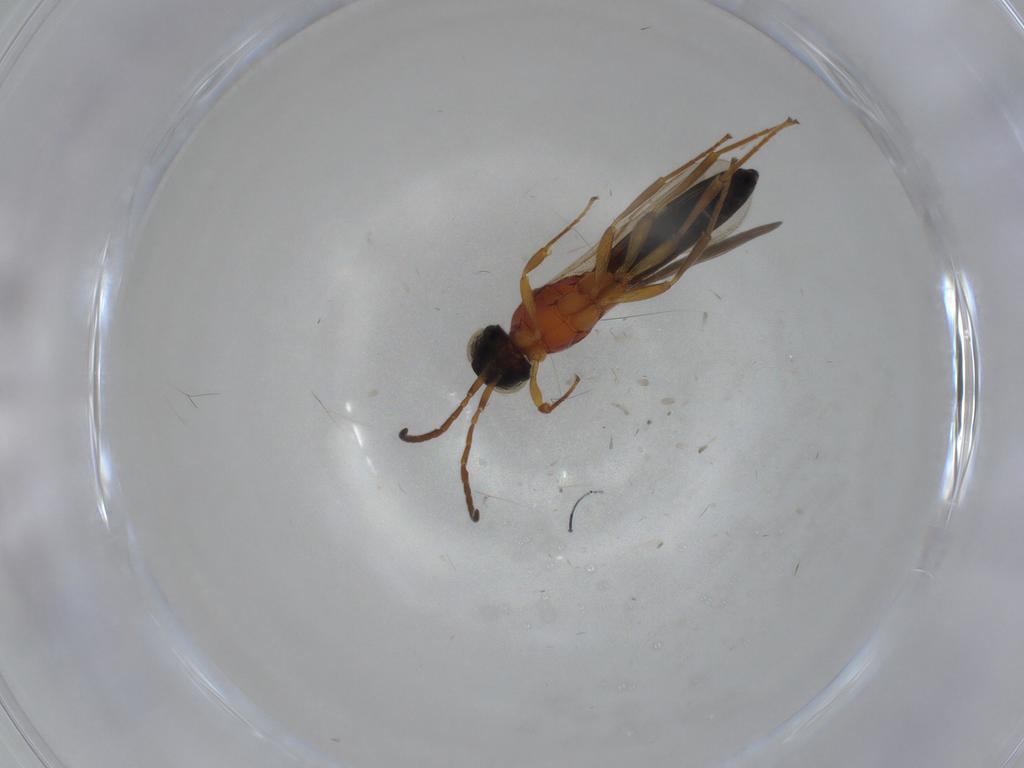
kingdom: Animalia
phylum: Arthropoda
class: Insecta
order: Hymenoptera
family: Scelionidae
